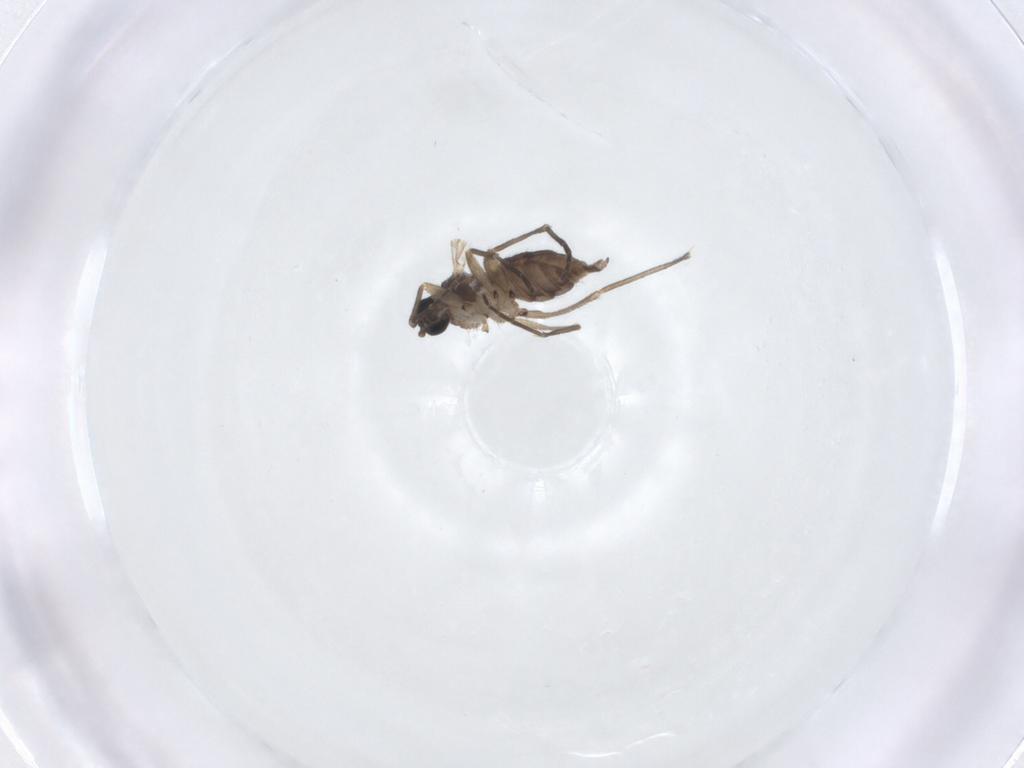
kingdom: Animalia
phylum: Arthropoda
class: Insecta
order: Diptera
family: Sciaridae
